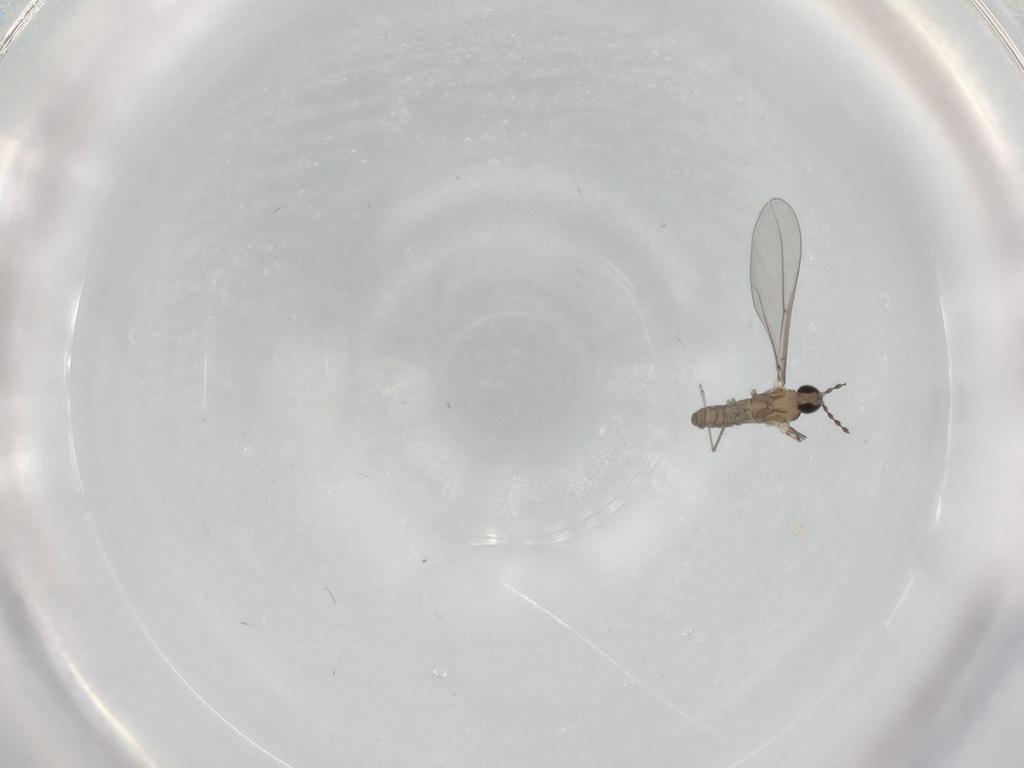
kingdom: Animalia
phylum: Arthropoda
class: Insecta
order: Diptera
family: Cecidomyiidae
